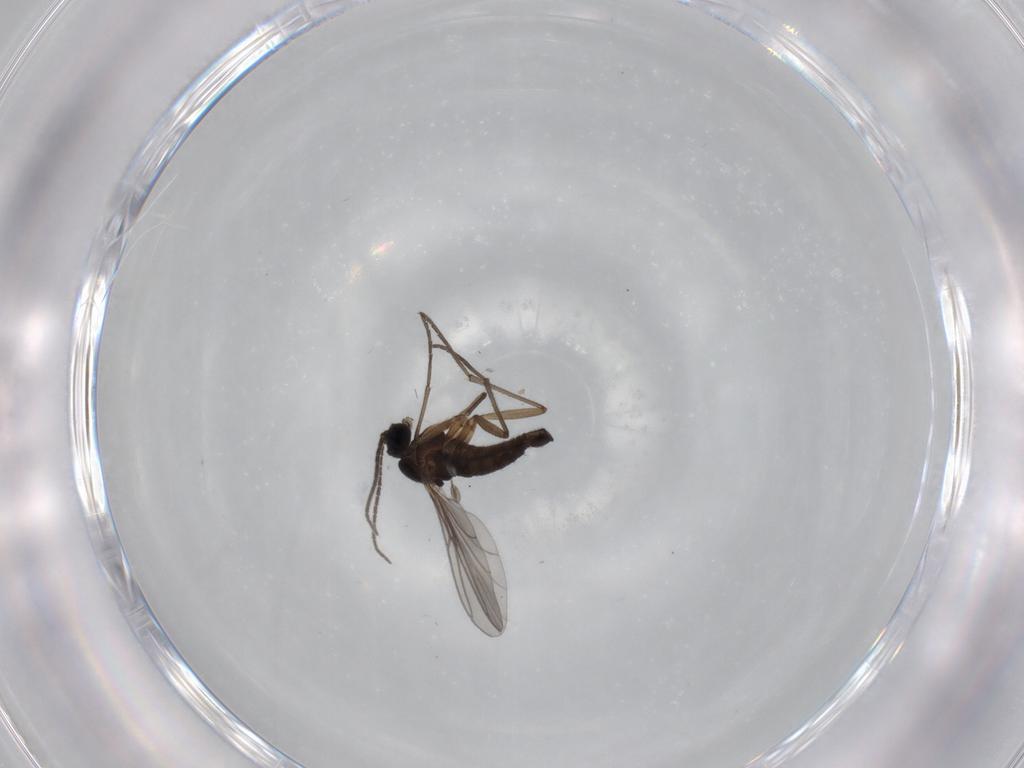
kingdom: Animalia
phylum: Arthropoda
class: Insecta
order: Diptera
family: Sciaridae
